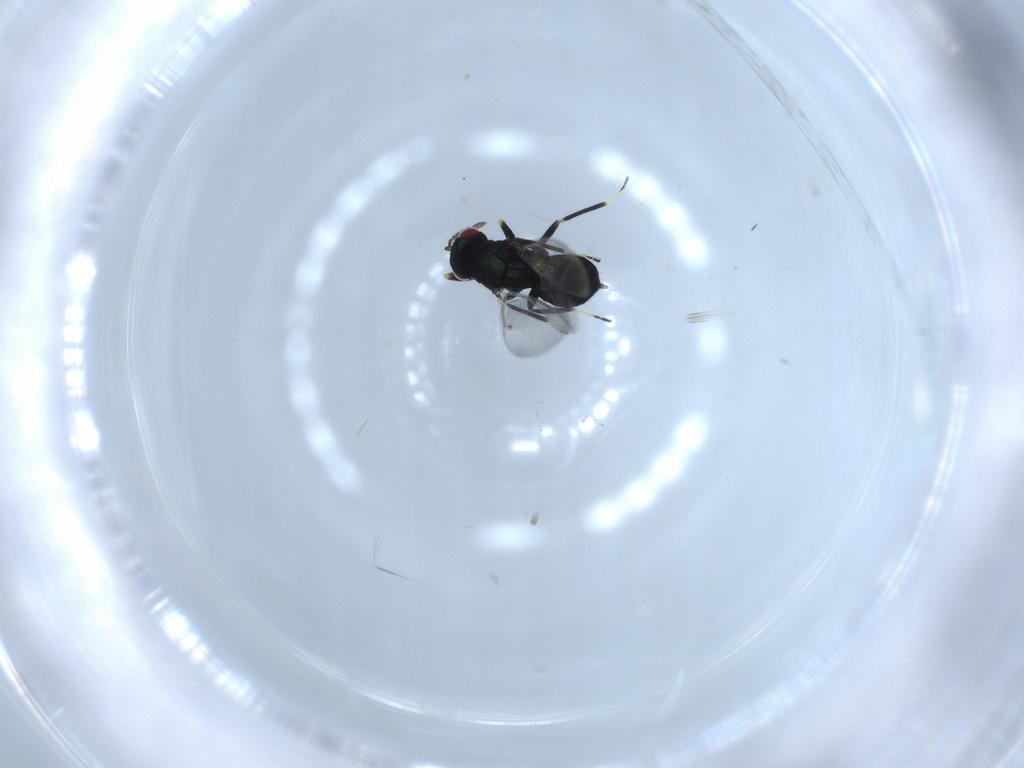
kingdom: Animalia
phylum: Arthropoda
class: Insecta
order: Hymenoptera
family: Eulophidae
